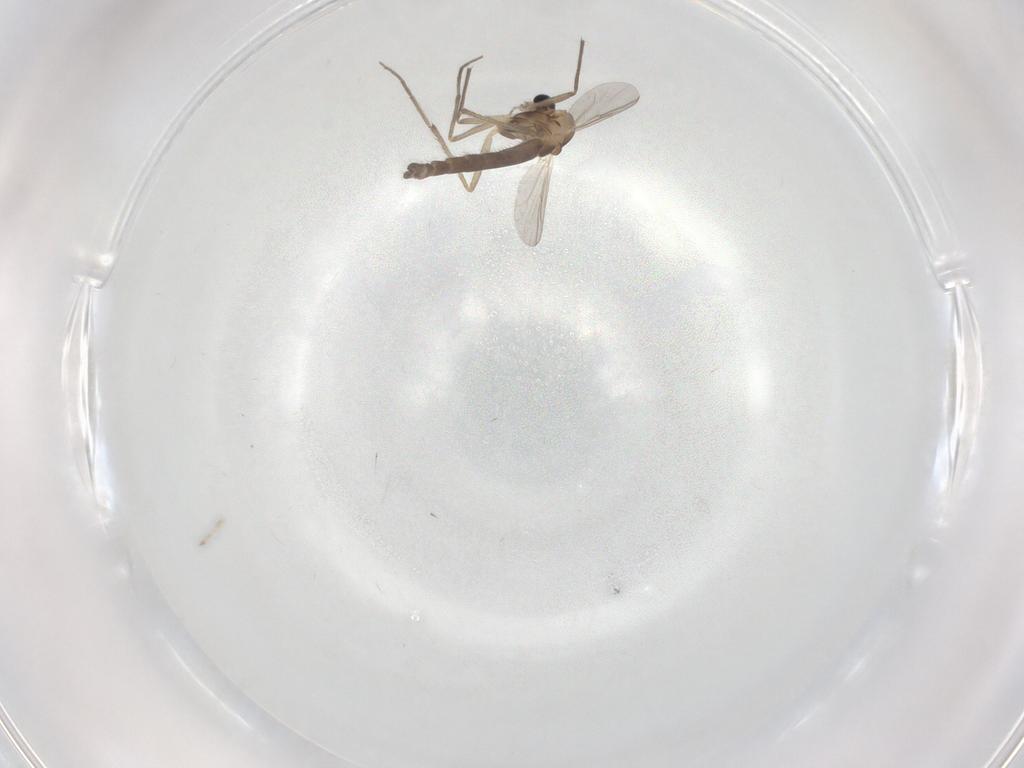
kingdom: Animalia
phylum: Arthropoda
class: Insecta
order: Diptera
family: Chironomidae
